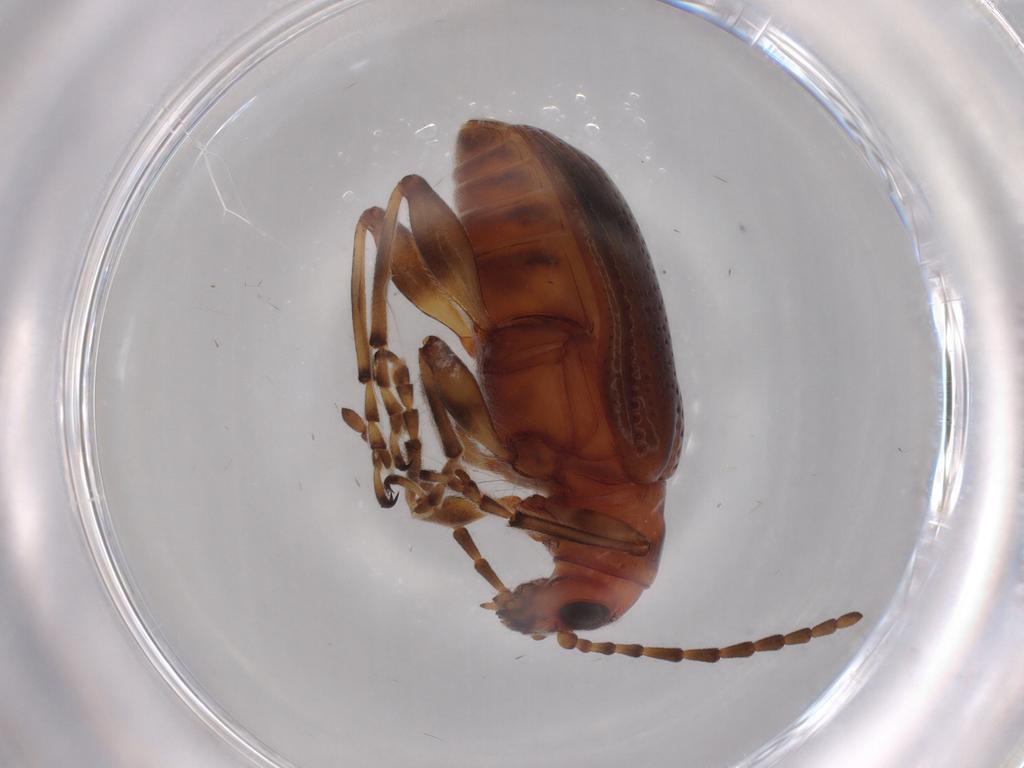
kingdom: Animalia
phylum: Arthropoda
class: Insecta
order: Coleoptera
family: Chrysomelidae
